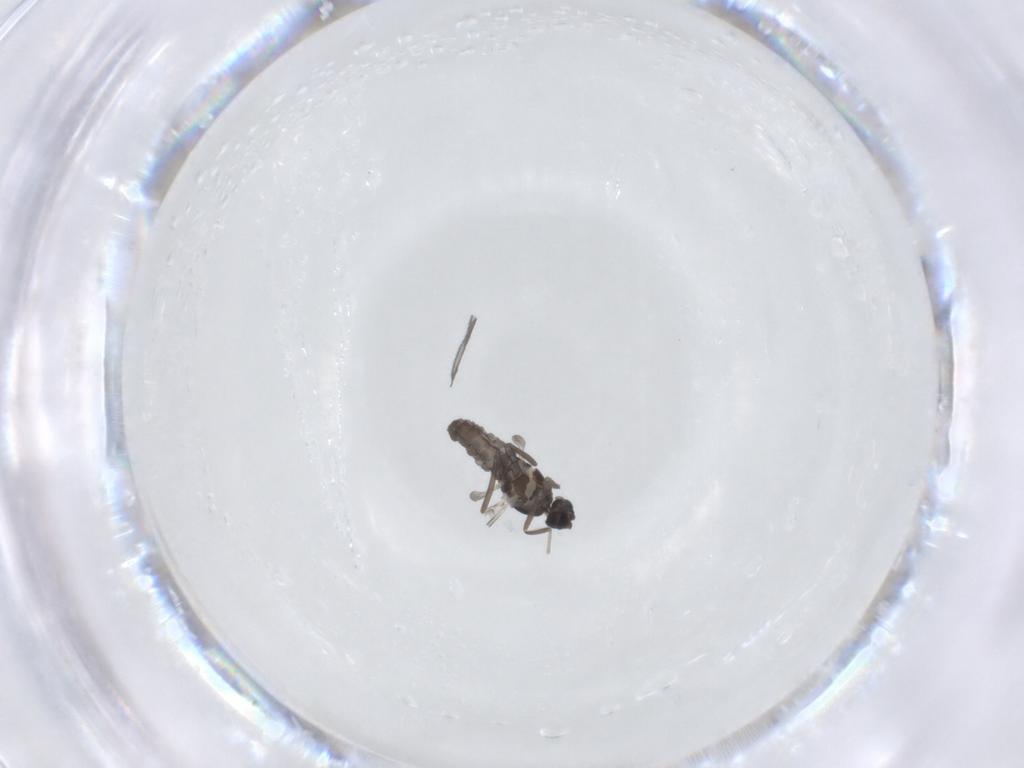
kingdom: Animalia
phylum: Arthropoda
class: Insecta
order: Diptera
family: Cecidomyiidae
